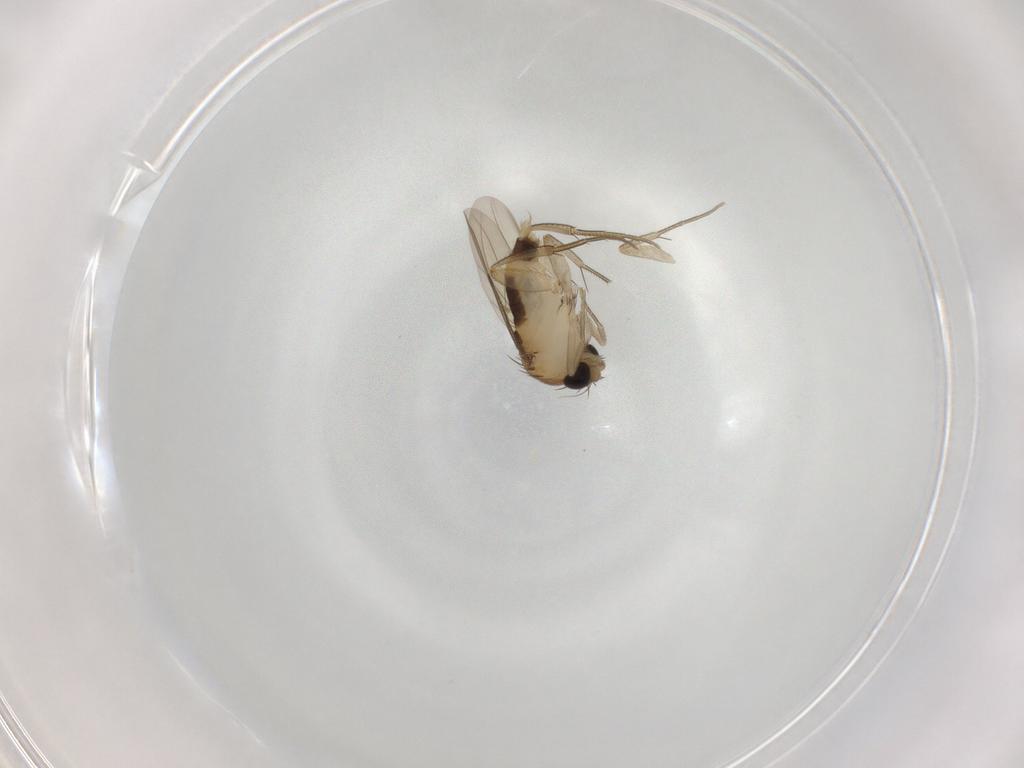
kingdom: Animalia
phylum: Arthropoda
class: Insecta
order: Diptera
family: Phoridae
